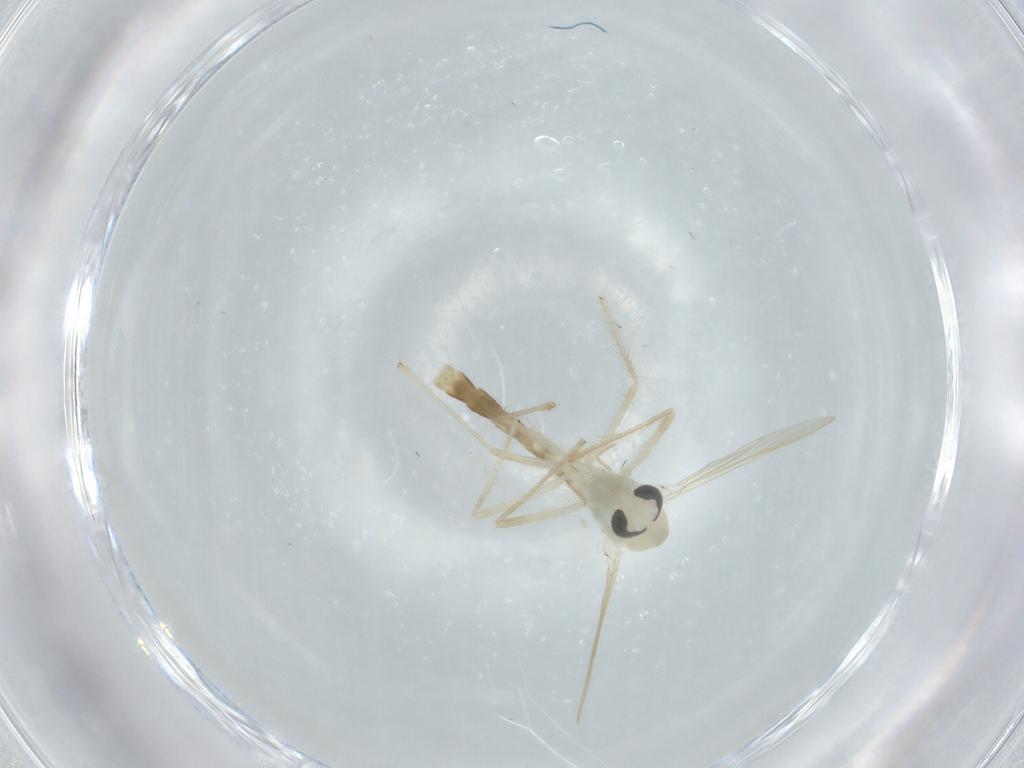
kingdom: Animalia
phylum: Arthropoda
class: Insecta
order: Diptera
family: Chironomidae
